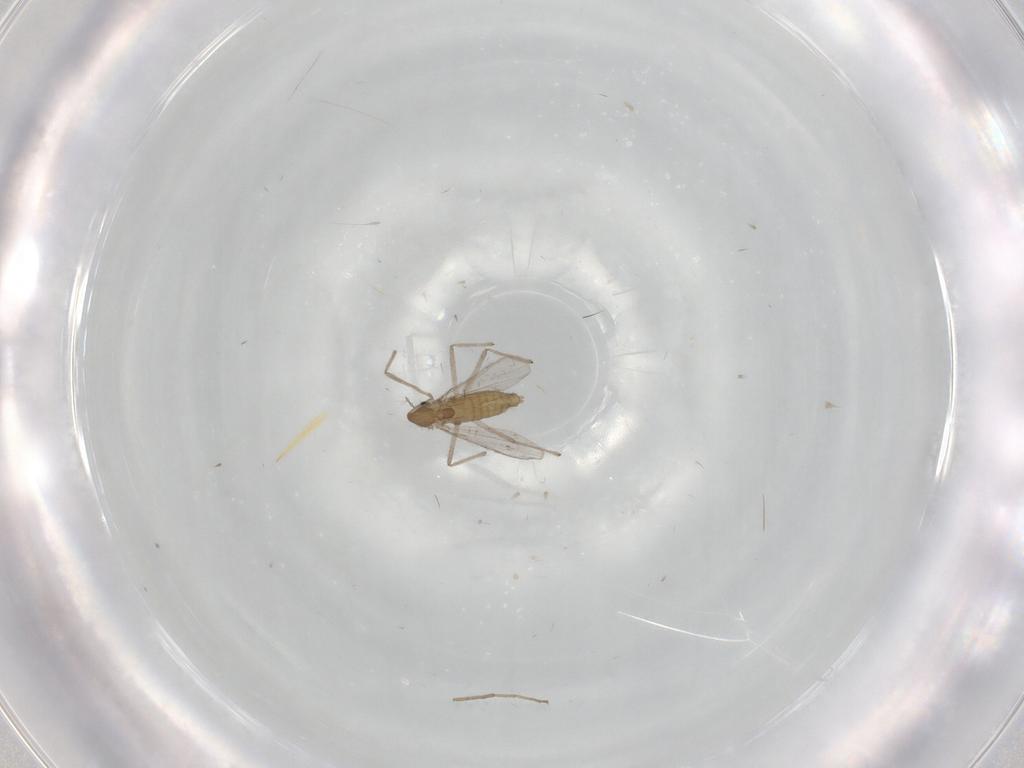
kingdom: Animalia
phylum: Arthropoda
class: Insecta
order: Diptera
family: Chironomidae
